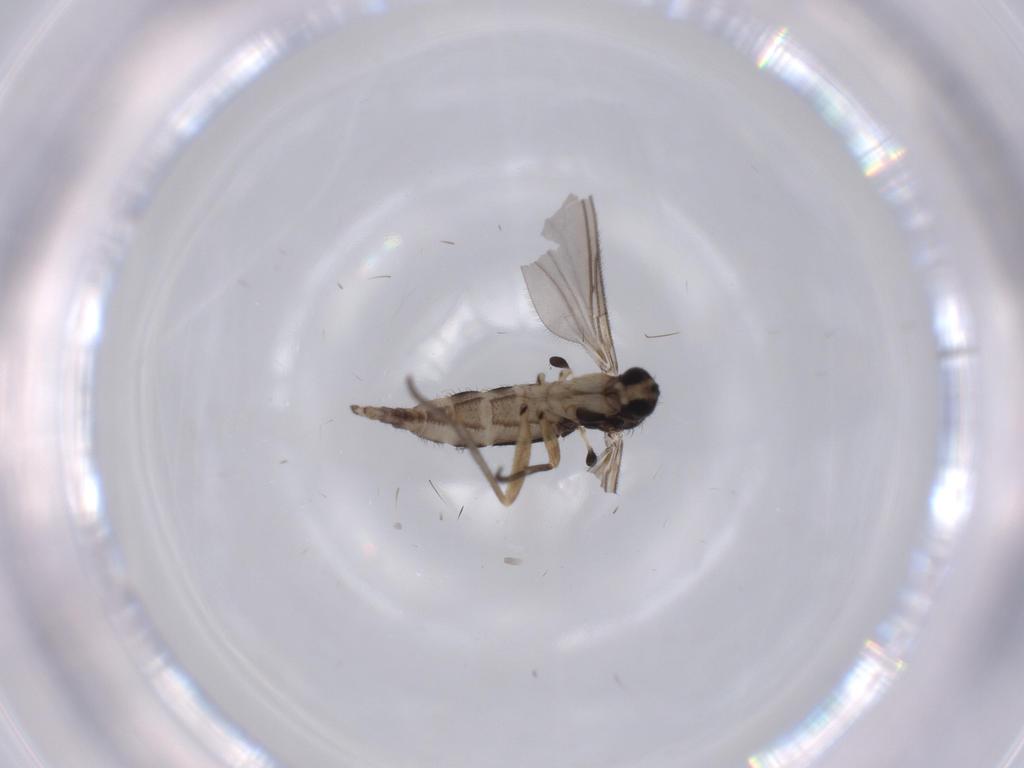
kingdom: Animalia
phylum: Arthropoda
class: Insecta
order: Diptera
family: Sciaridae
